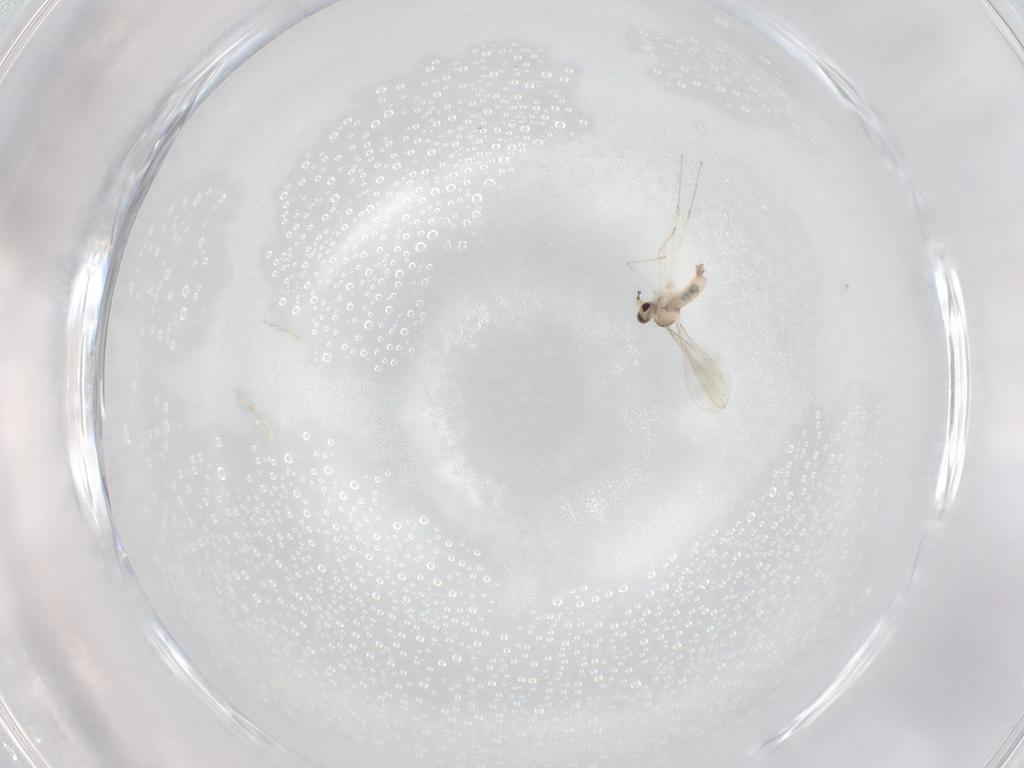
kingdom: Animalia
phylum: Arthropoda
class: Insecta
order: Diptera
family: Cecidomyiidae
